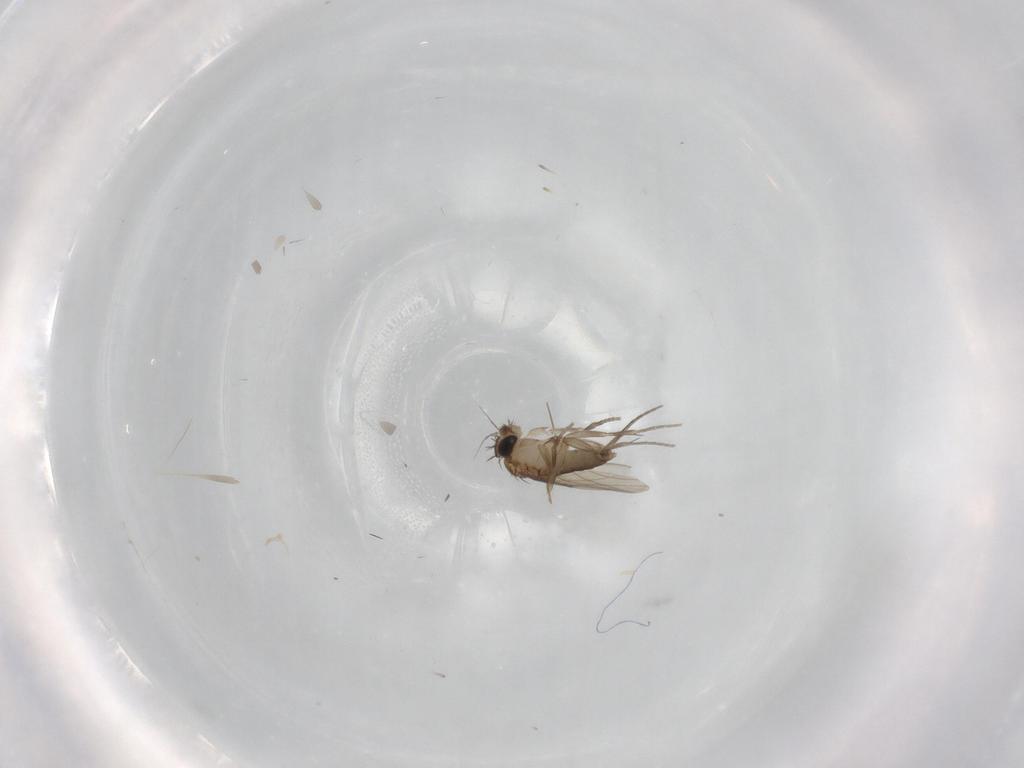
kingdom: Animalia
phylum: Arthropoda
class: Insecta
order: Diptera
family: Phoridae
